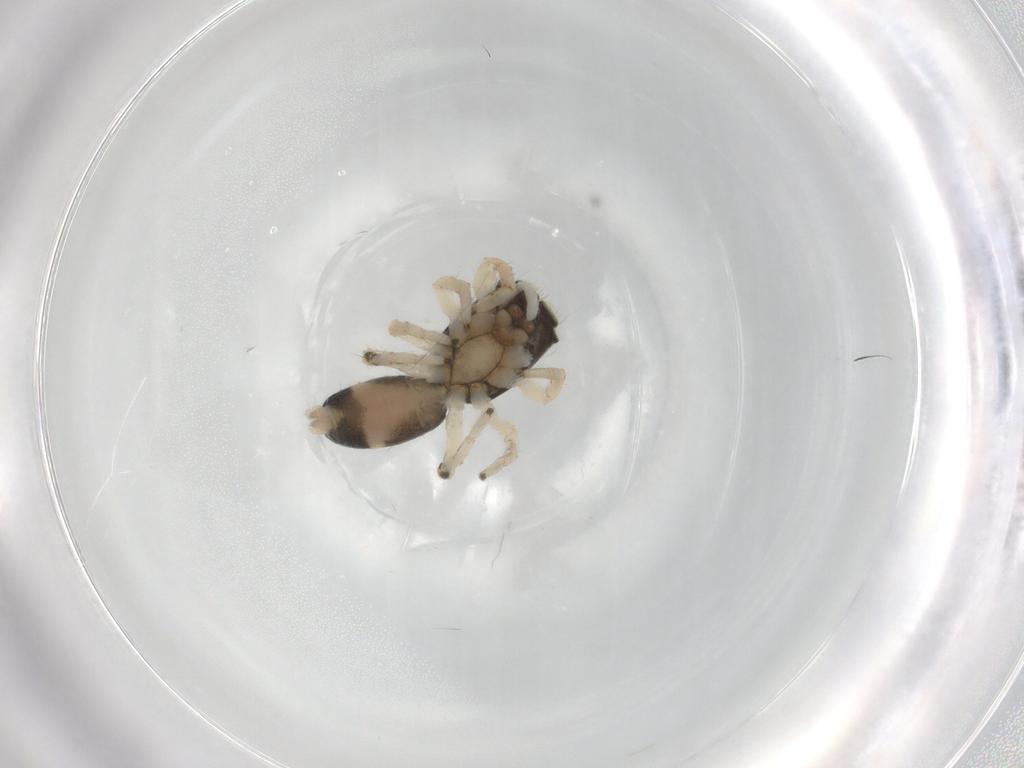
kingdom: Animalia
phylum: Arthropoda
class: Arachnida
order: Araneae
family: Salticidae
